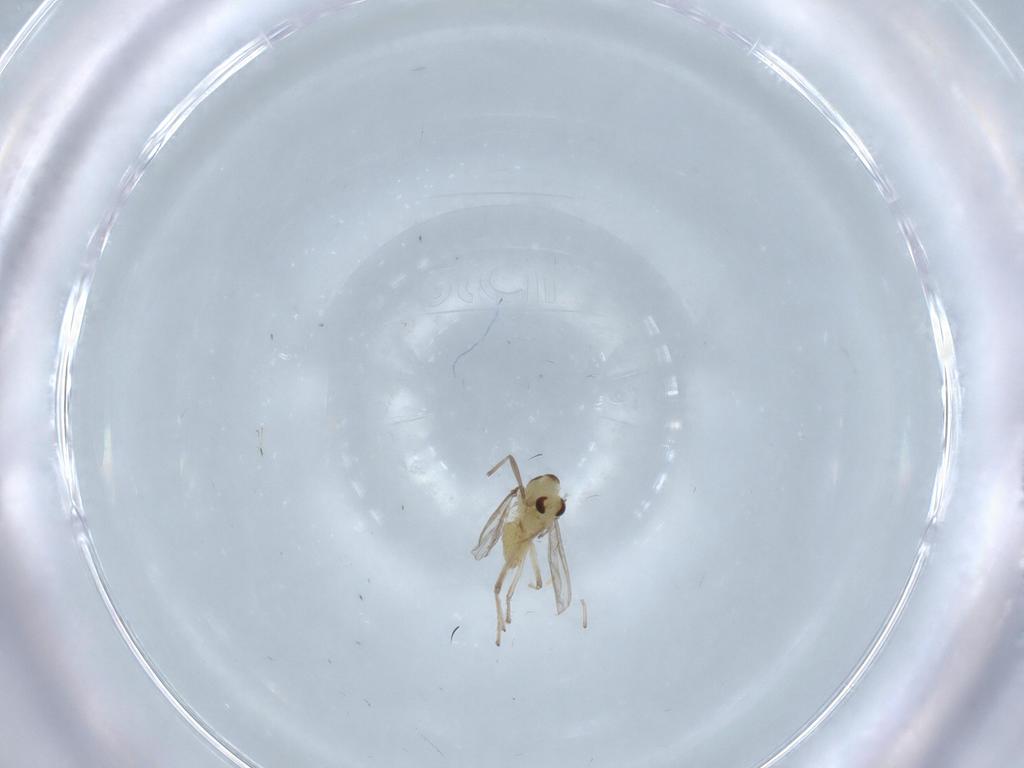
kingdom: Animalia
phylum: Arthropoda
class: Insecta
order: Diptera
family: Chironomidae
